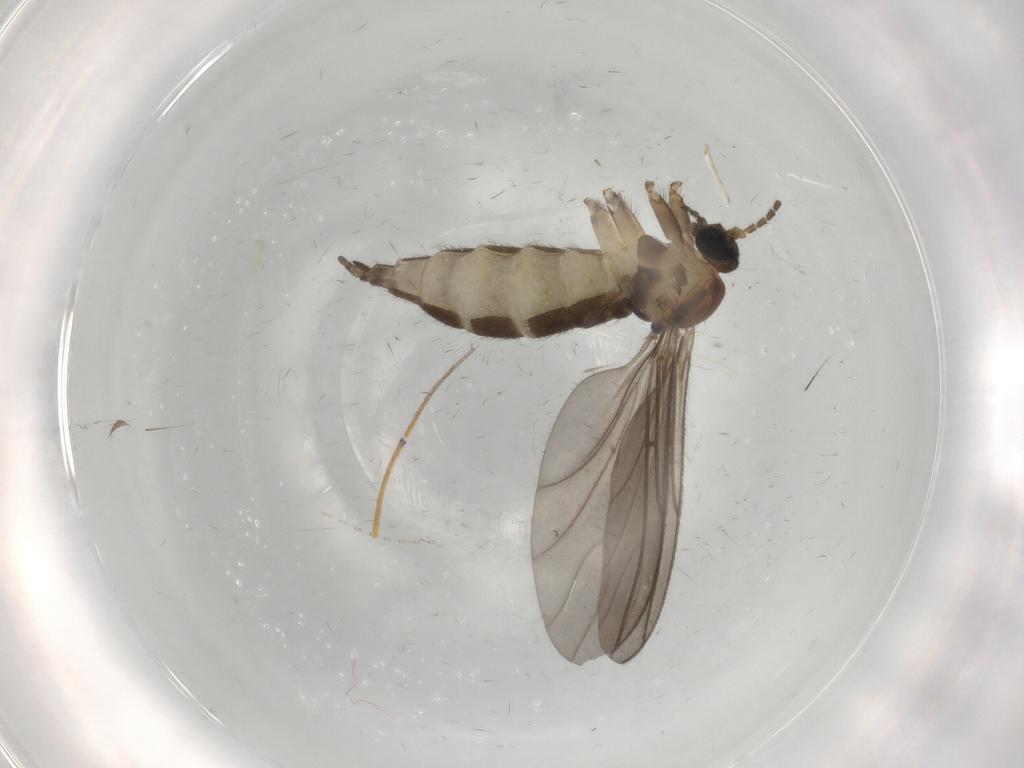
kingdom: Animalia
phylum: Arthropoda
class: Insecta
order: Diptera
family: Sciaridae
